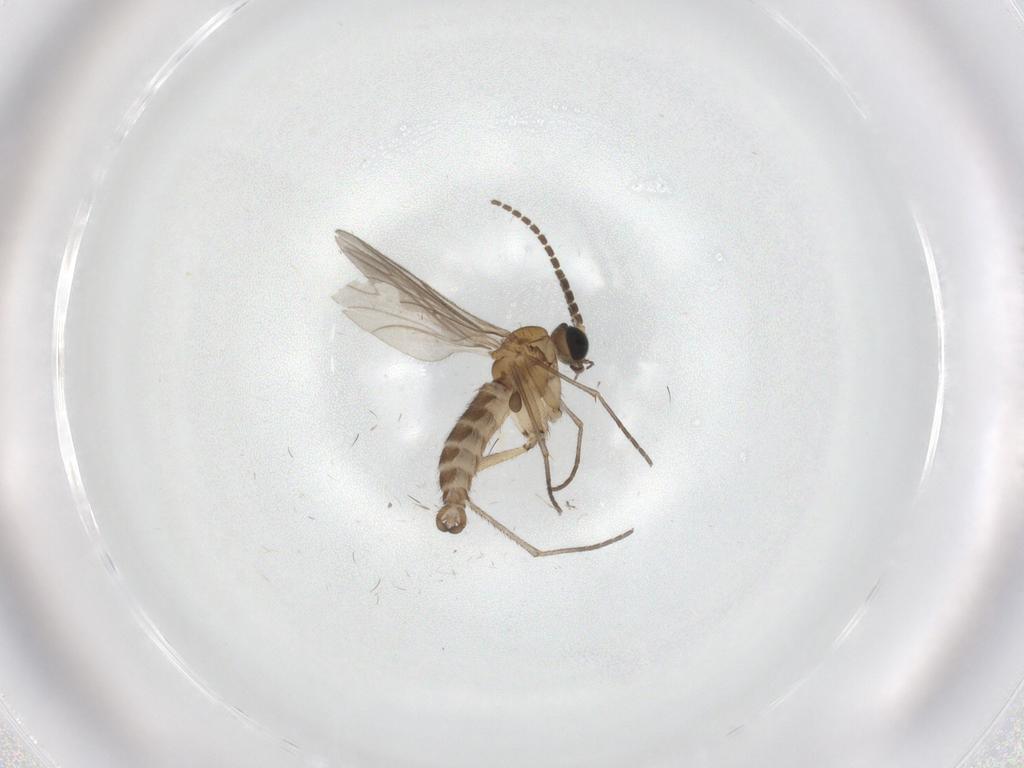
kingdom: Animalia
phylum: Arthropoda
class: Insecta
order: Diptera
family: Sciaridae
